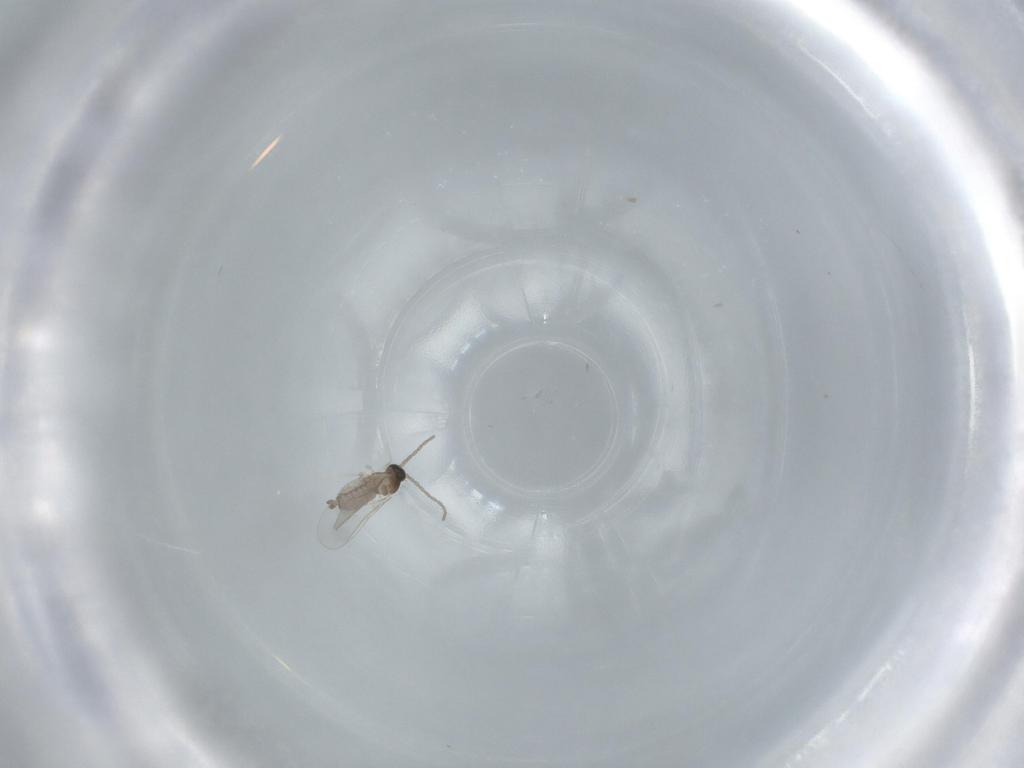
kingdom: Animalia
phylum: Arthropoda
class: Insecta
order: Diptera
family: Cecidomyiidae
